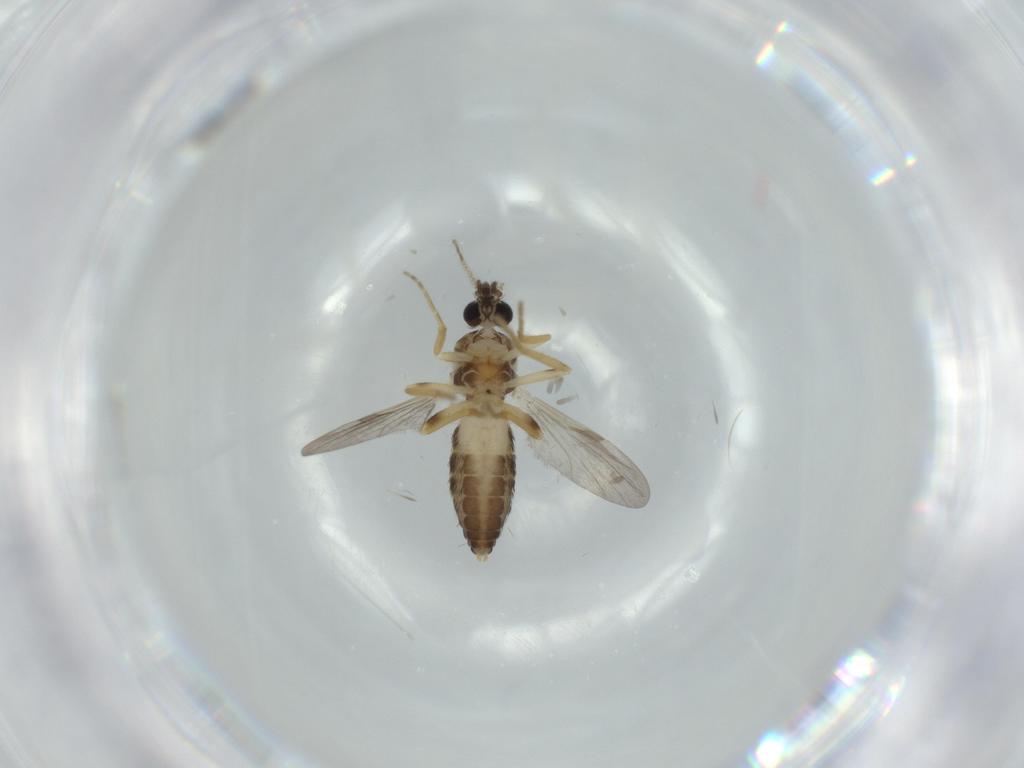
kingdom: Animalia
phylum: Arthropoda
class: Insecta
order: Diptera
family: Chironomidae
